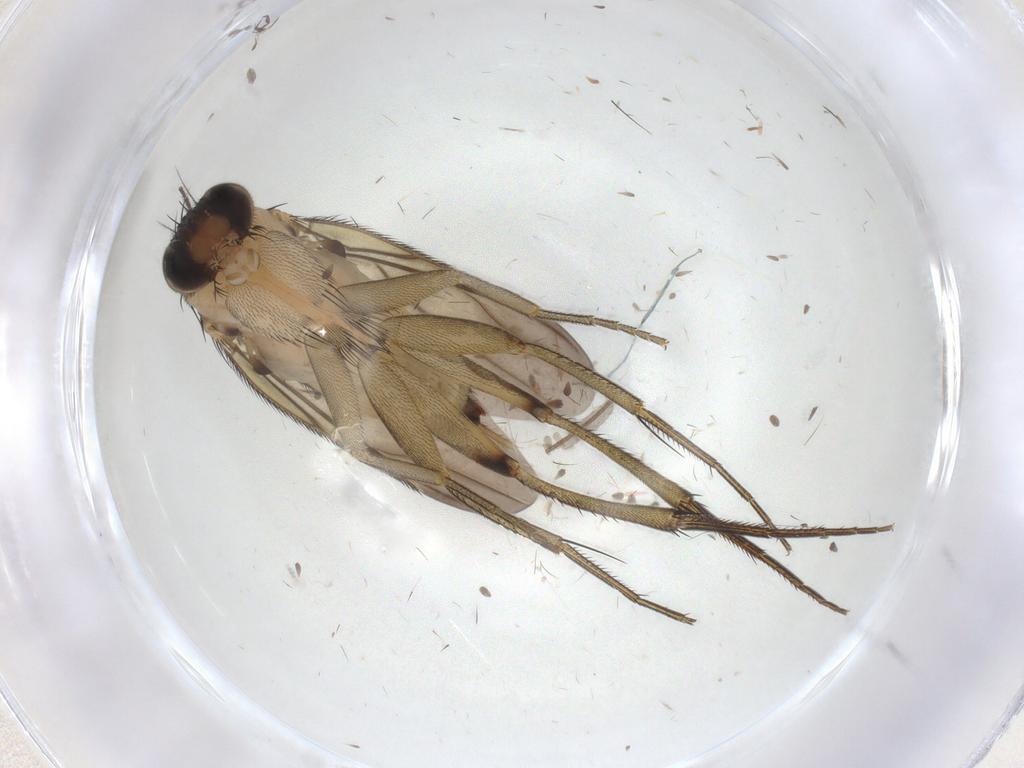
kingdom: Animalia
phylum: Arthropoda
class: Insecta
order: Diptera
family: Phoridae
